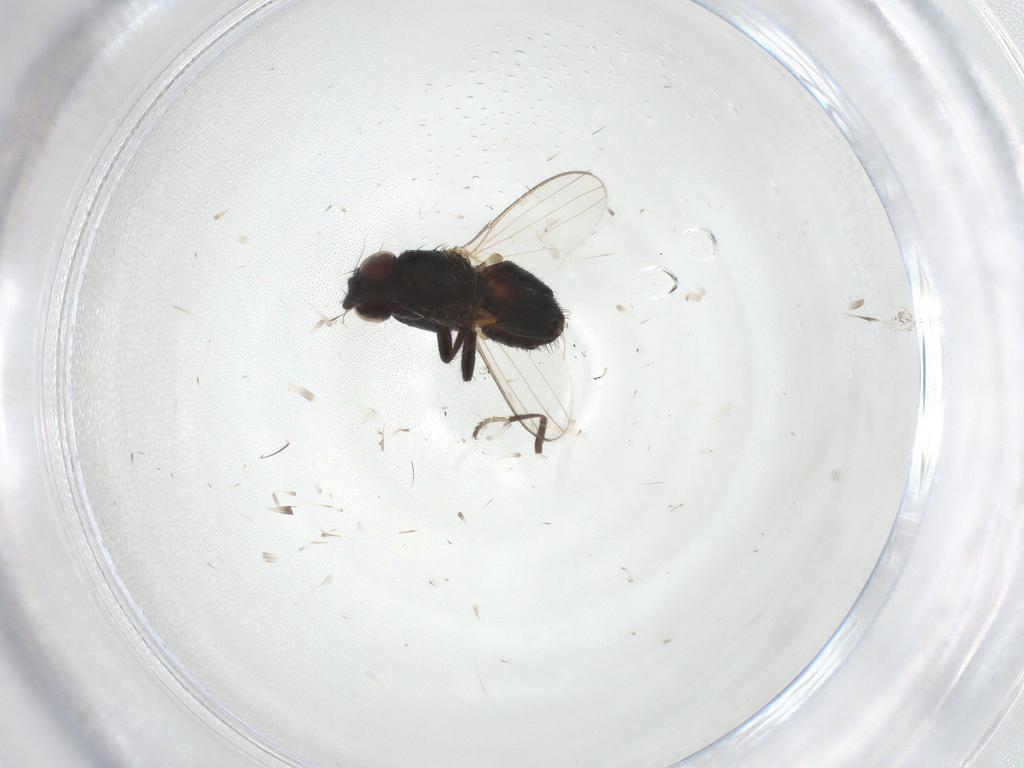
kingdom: Animalia
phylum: Arthropoda
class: Insecta
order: Diptera
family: Milichiidae
